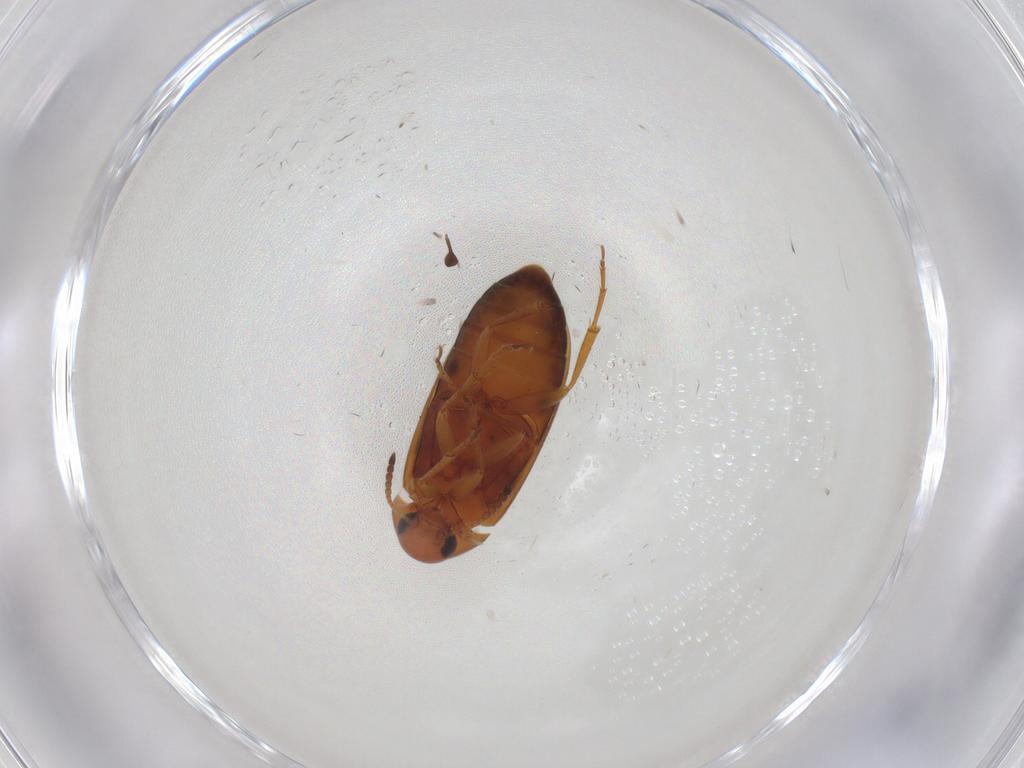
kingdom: Animalia
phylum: Arthropoda
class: Insecta
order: Coleoptera
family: Scraptiidae
